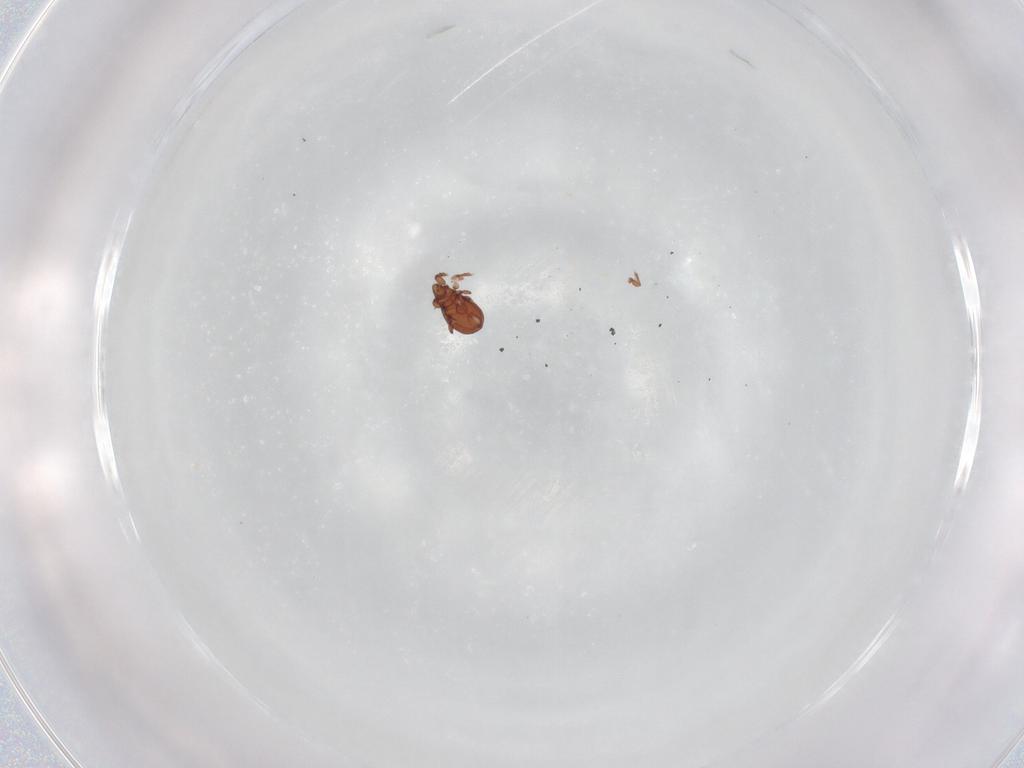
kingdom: Animalia
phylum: Arthropoda
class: Arachnida
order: Sarcoptiformes
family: Eremaeidae
